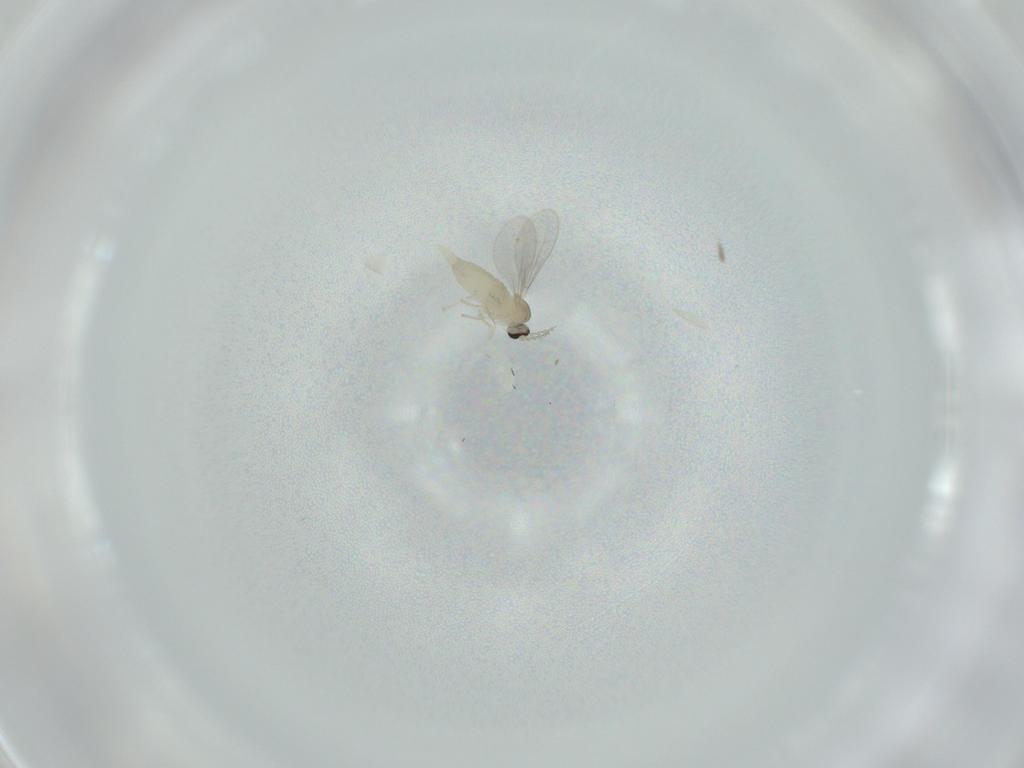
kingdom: Animalia
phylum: Arthropoda
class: Insecta
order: Diptera
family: Cecidomyiidae
